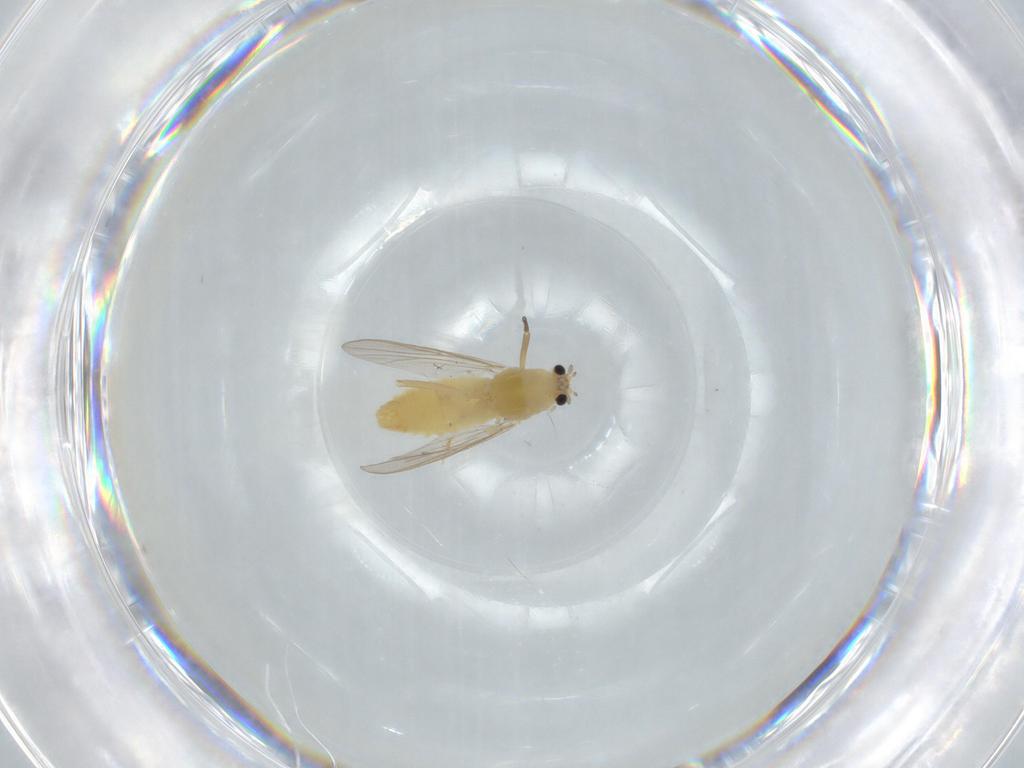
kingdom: Animalia
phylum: Arthropoda
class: Insecta
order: Diptera
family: Chironomidae
